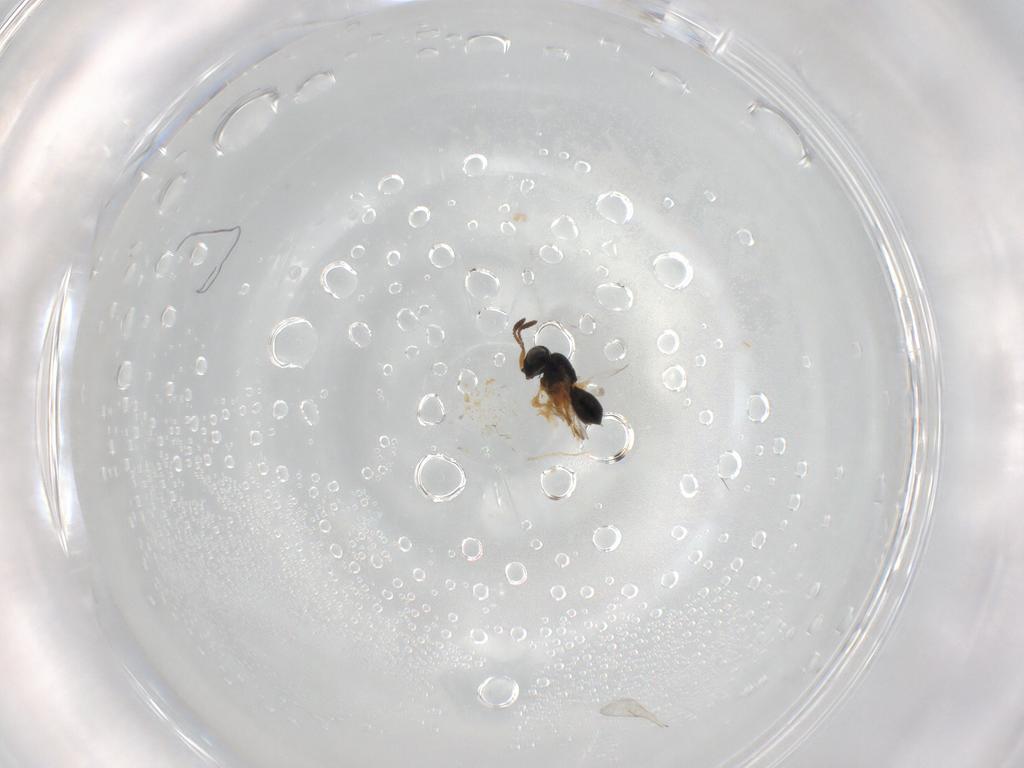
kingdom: Animalia
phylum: Arthropoda
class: Insecta
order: Hymenoptera
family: Scelionidae
